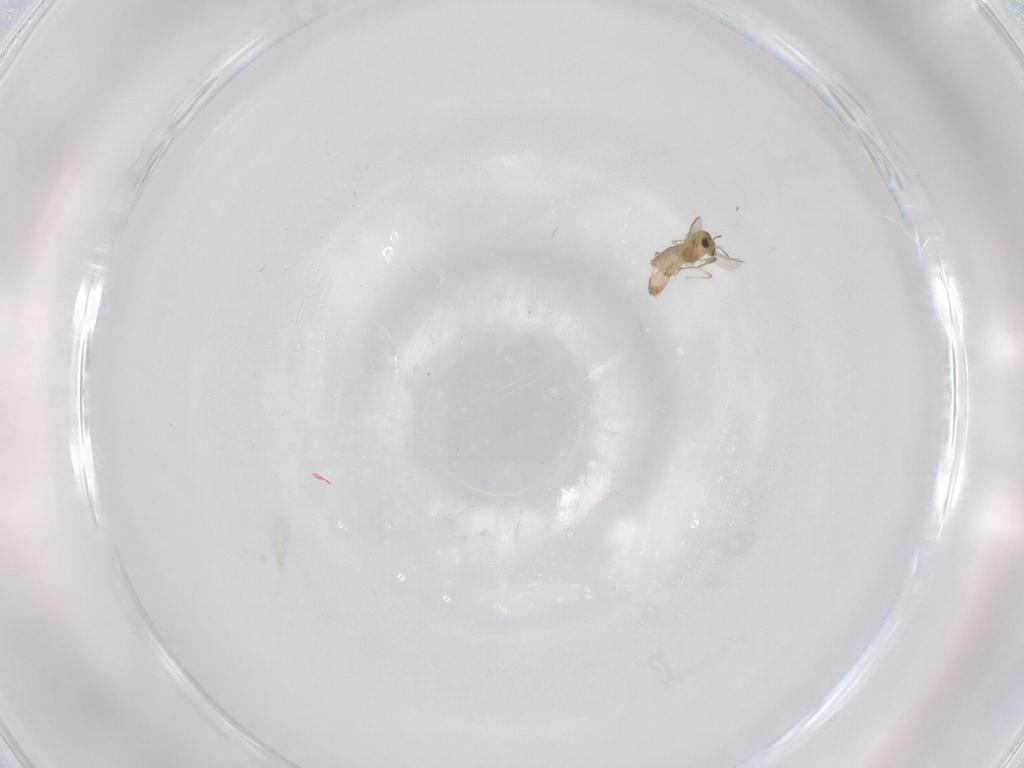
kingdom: Animalia
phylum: Arthropoda
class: Insecta
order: Diptera
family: Chironomidae
